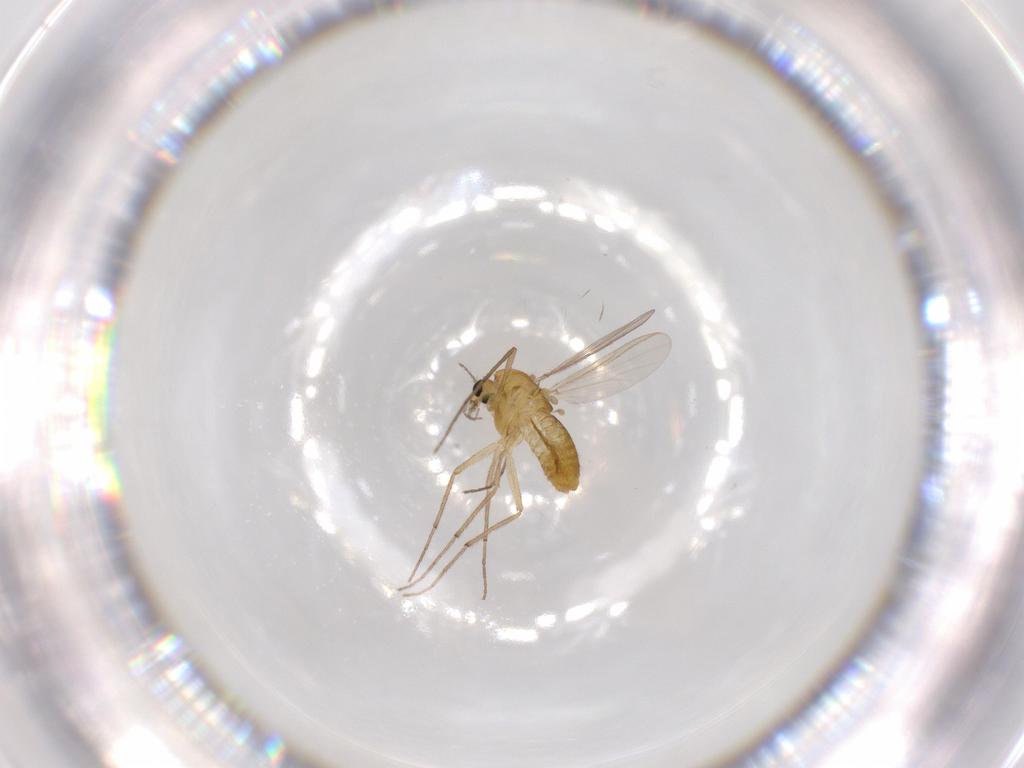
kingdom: Animalia
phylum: Arthropoda
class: Insecta
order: Diptera
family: Chironomidae
